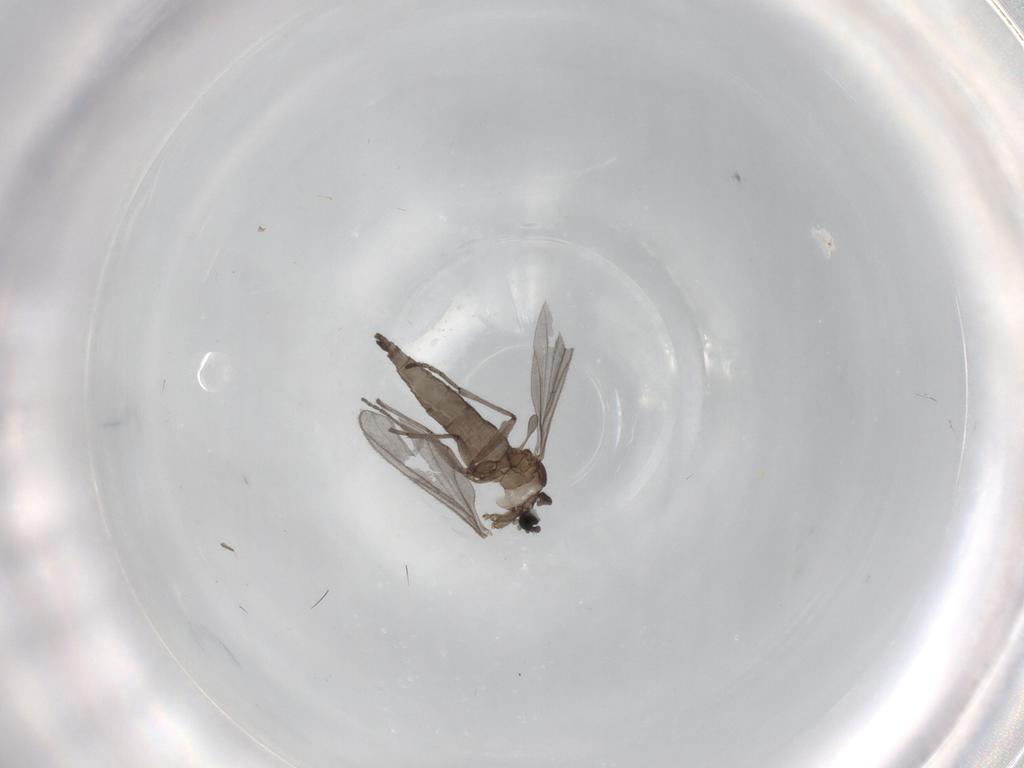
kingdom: Animalia
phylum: Arthropoda
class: Insecta
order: Diptera
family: Sciaridae
